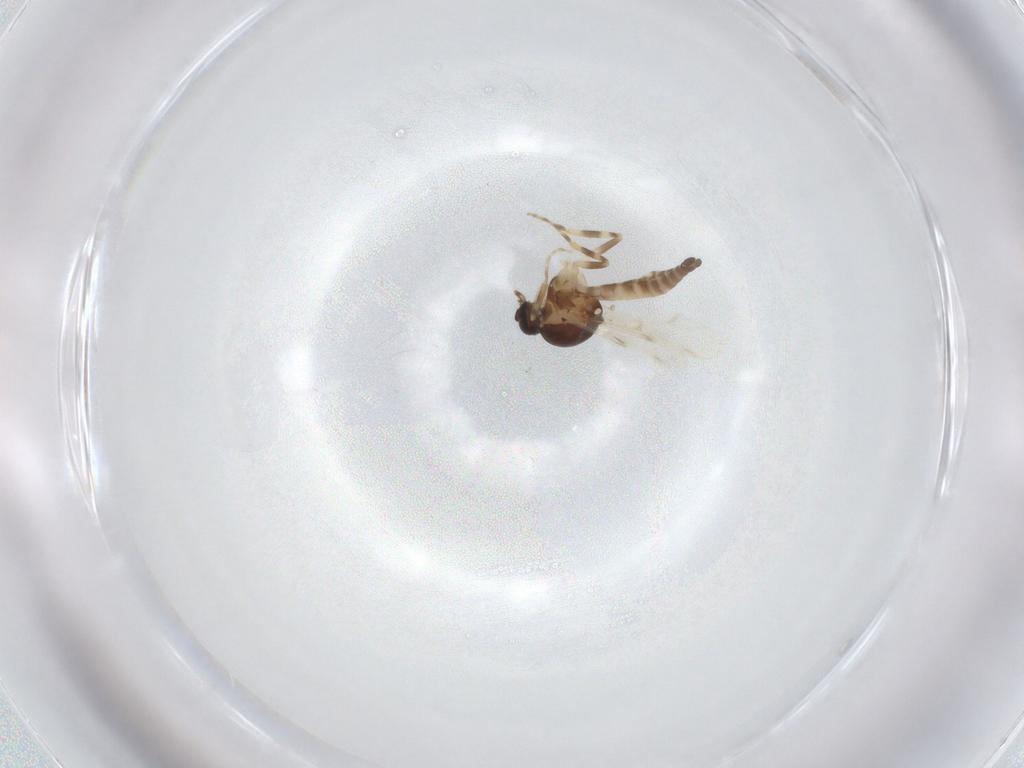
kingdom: Animalia
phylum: Arthropoda
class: Insecta
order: Diptera
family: Ceratopogonidae
